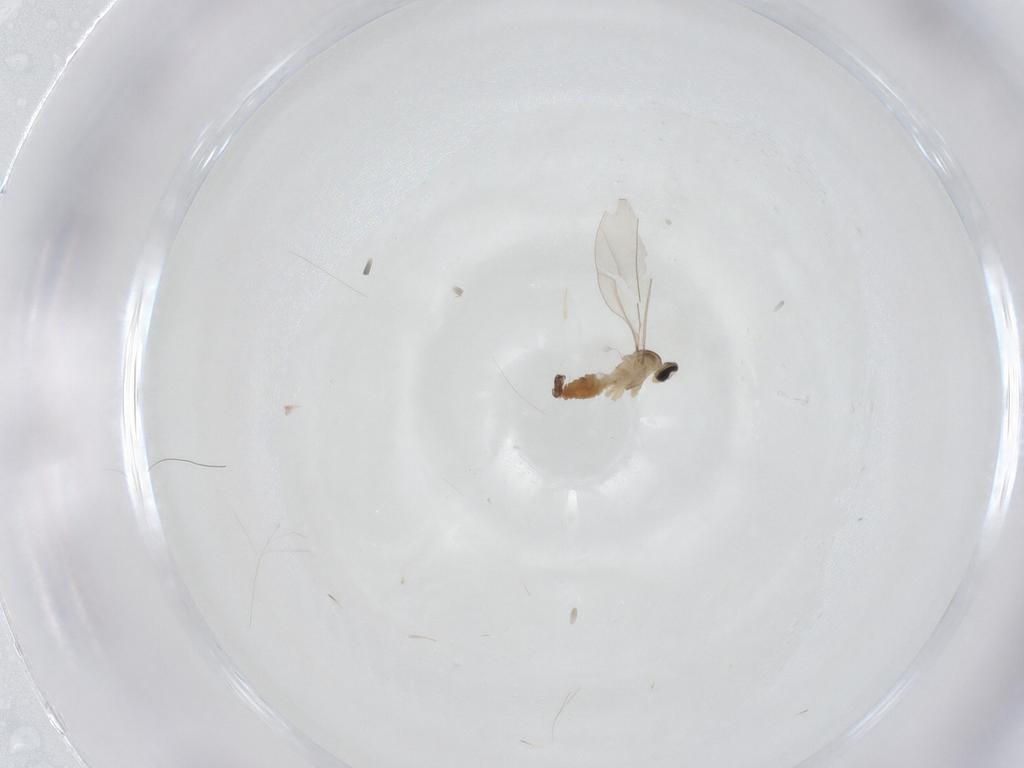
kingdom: Animalia
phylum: Arthropoda
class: Insecta
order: Diptera
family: Cecidomyiidae
